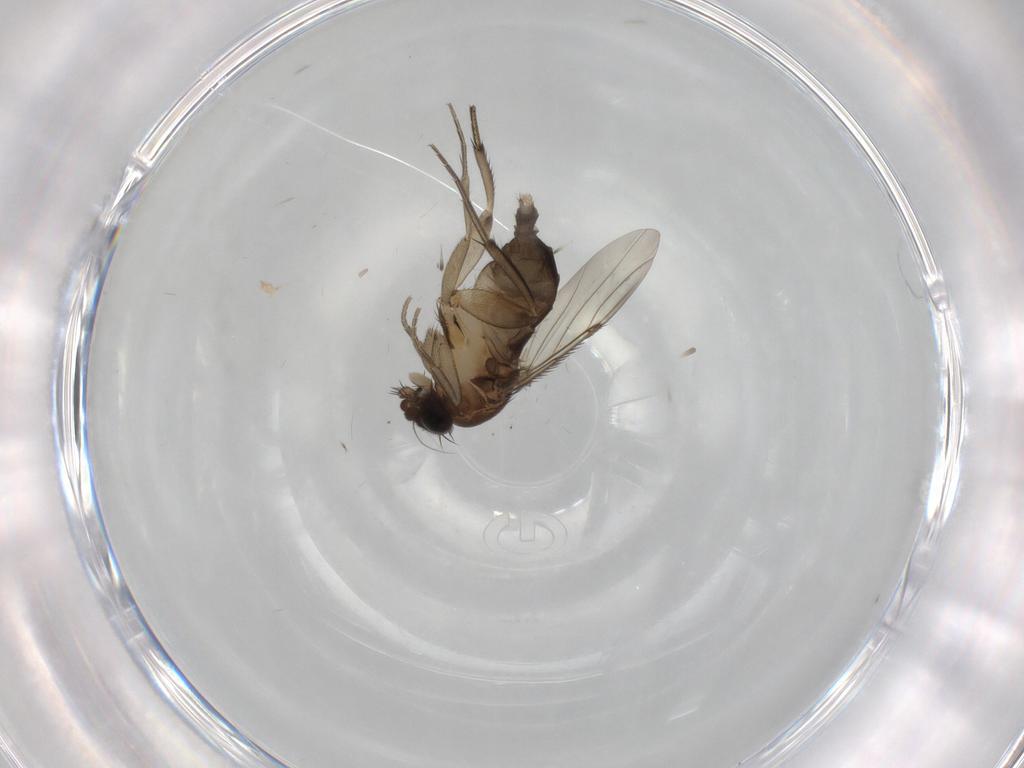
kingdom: Animalia
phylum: Arthropoda
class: Insecta
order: Diptera
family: Phoridae
